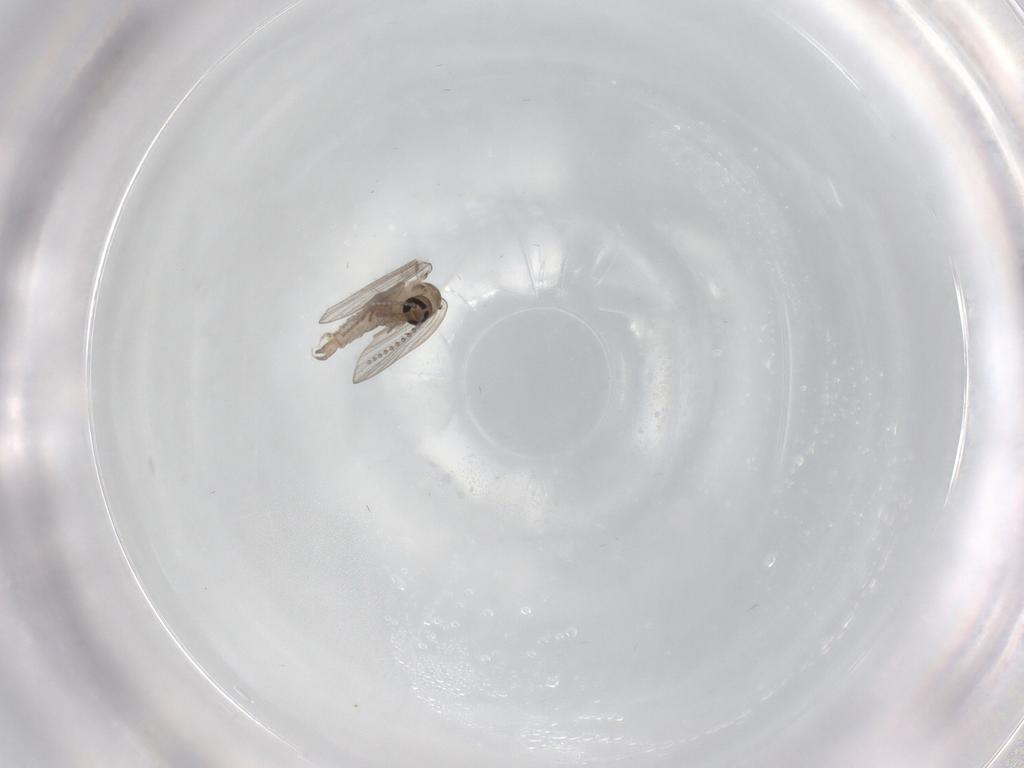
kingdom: Animalia
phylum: Arthropoda
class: Insecta
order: Diptera
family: Psychodidae
